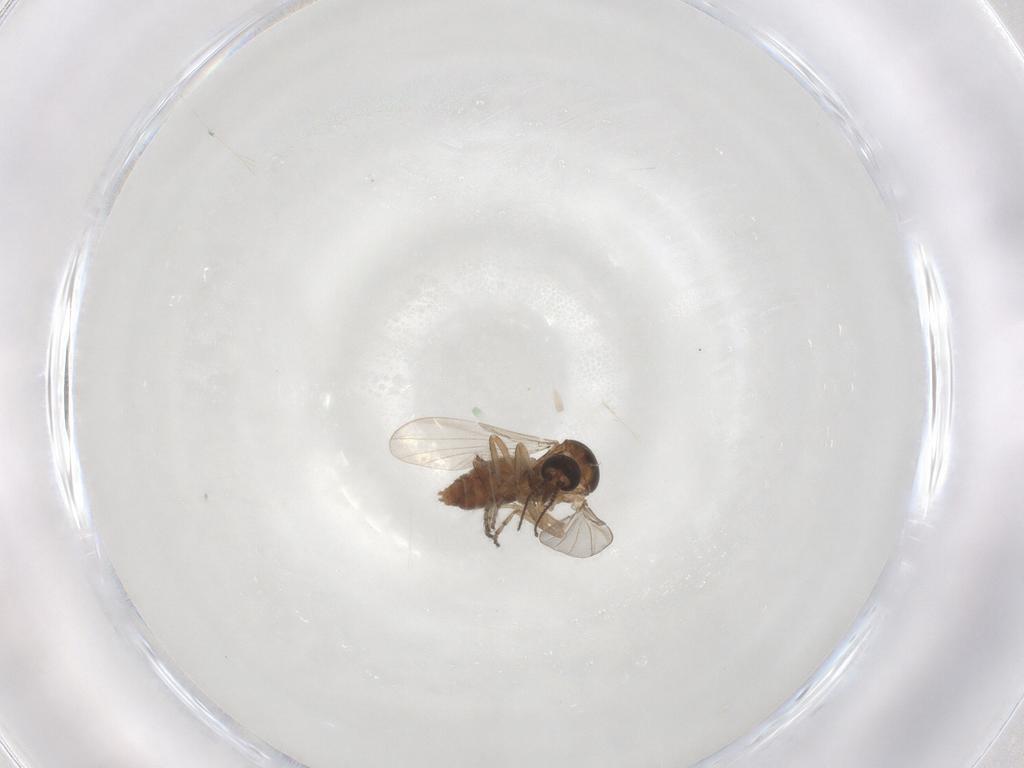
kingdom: Animalia
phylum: Arthropoda
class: Insecta
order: Diptera
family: Ceratopogonidae
